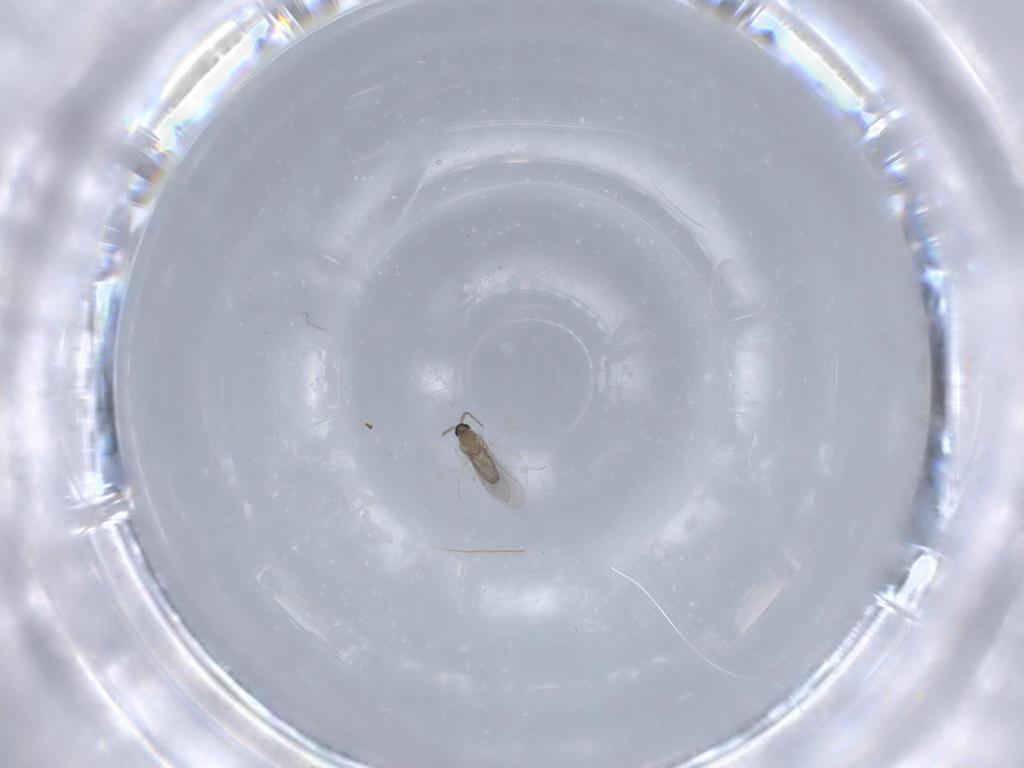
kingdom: Animalia
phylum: Arthropoda
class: Insecta
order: Diptera
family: Cecidomyiidae
